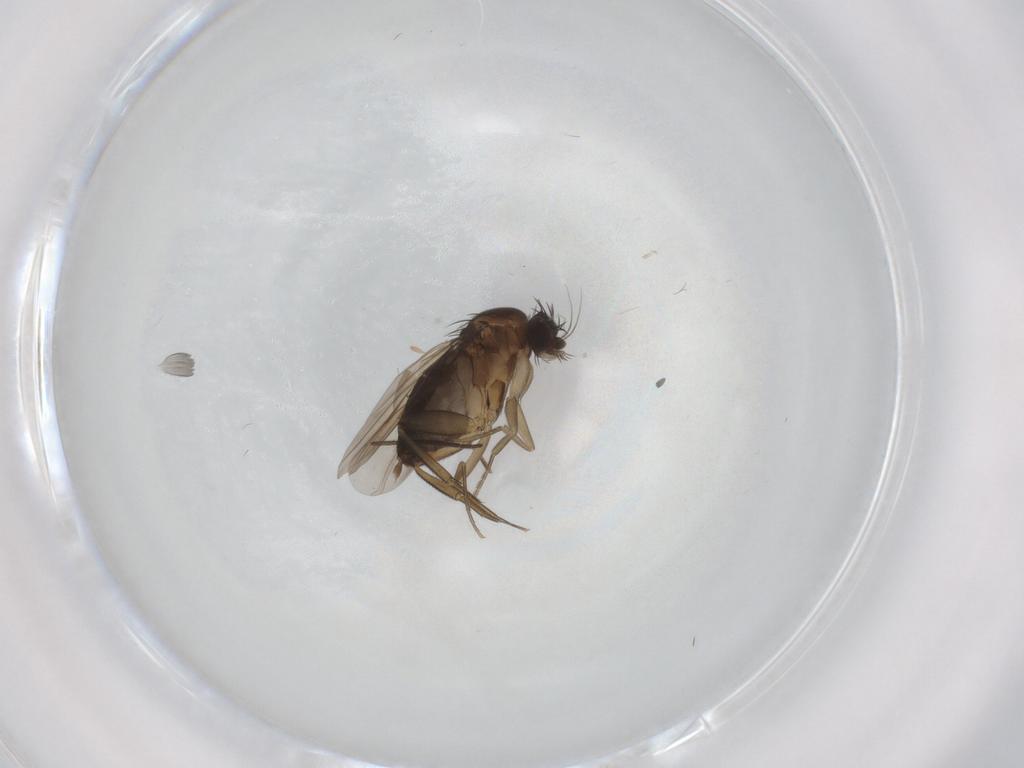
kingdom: Animalia
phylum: Arthropoda
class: Insecta
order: Diptera
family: Sciaridae
